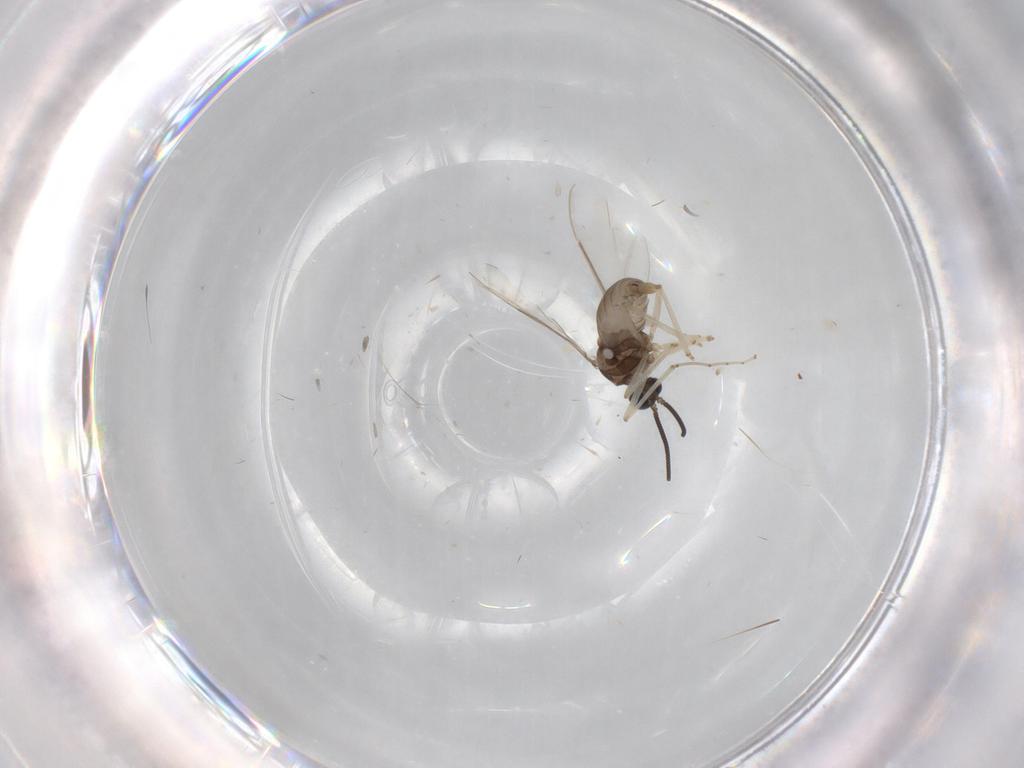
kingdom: Animalia
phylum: Arthropoda
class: Insecta
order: Diptera
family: Cecidomyiidae
